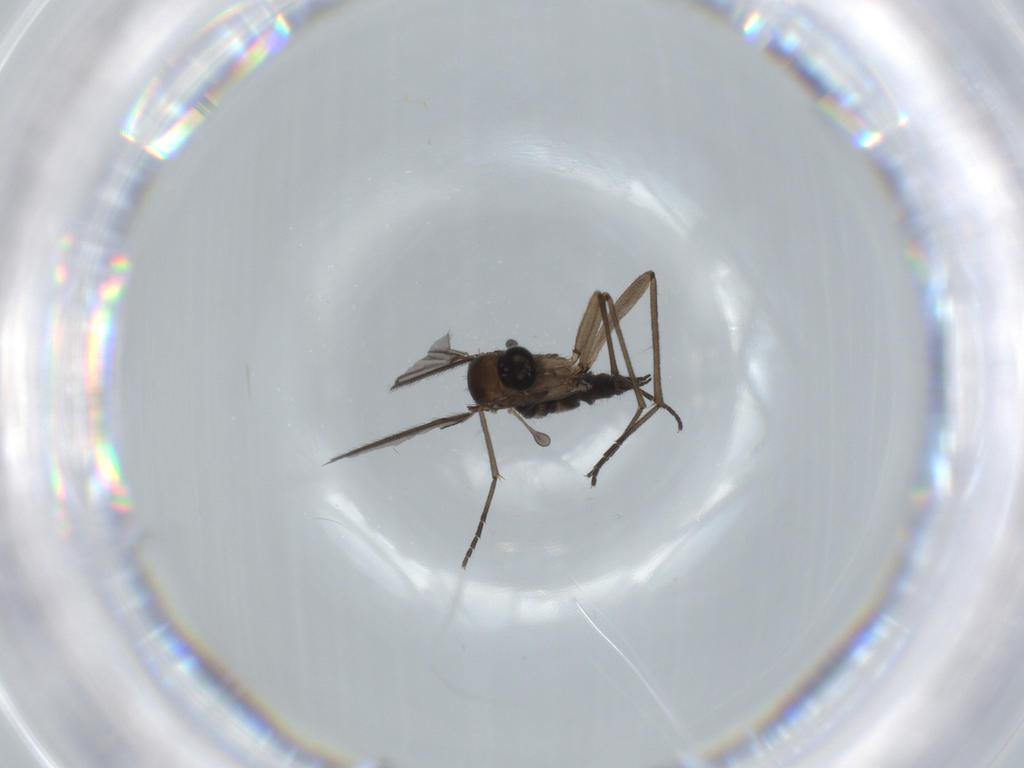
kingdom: Animalia
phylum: Arthropoda
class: Insecta
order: Diptera
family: Sciaridae
